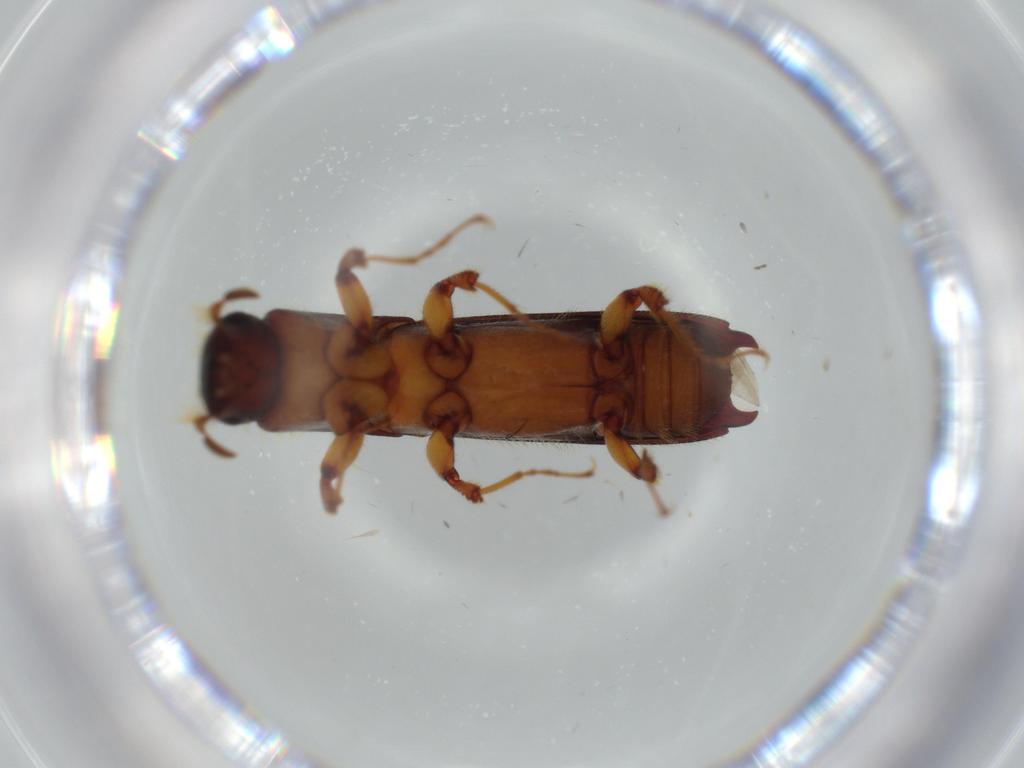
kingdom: Animalia
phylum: Arthropoda
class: Insecta
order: Coleoptera
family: Curculionidae
